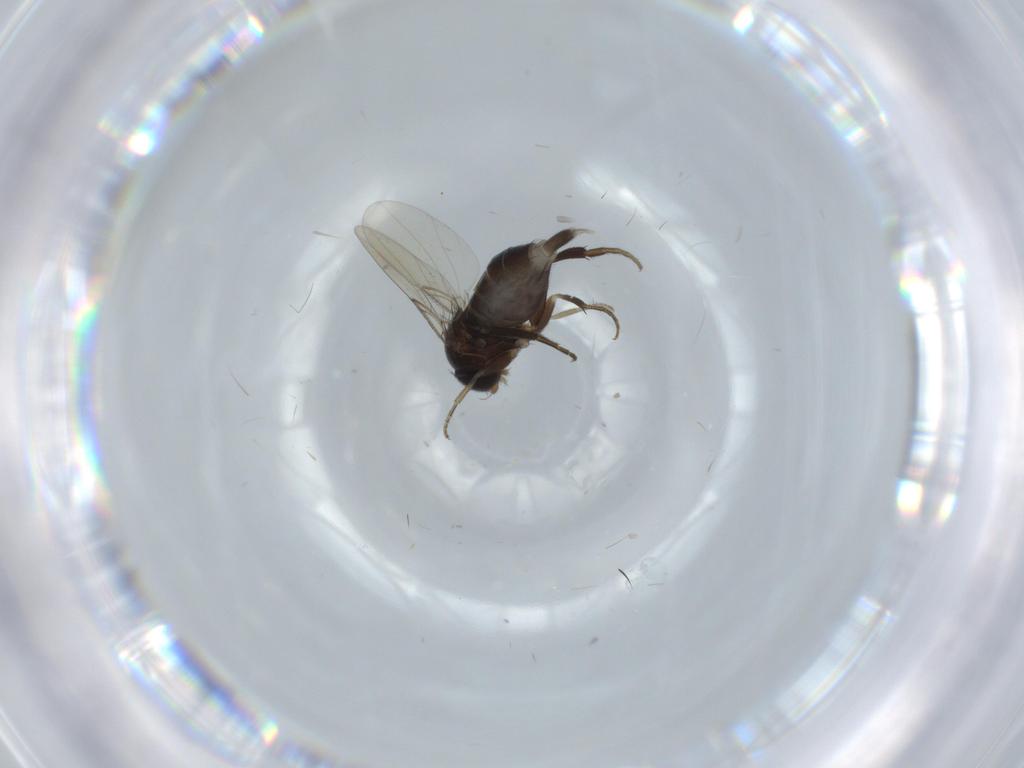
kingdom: Animalia
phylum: Arthropoda
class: Insecta
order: Diptera
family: Phoridae
